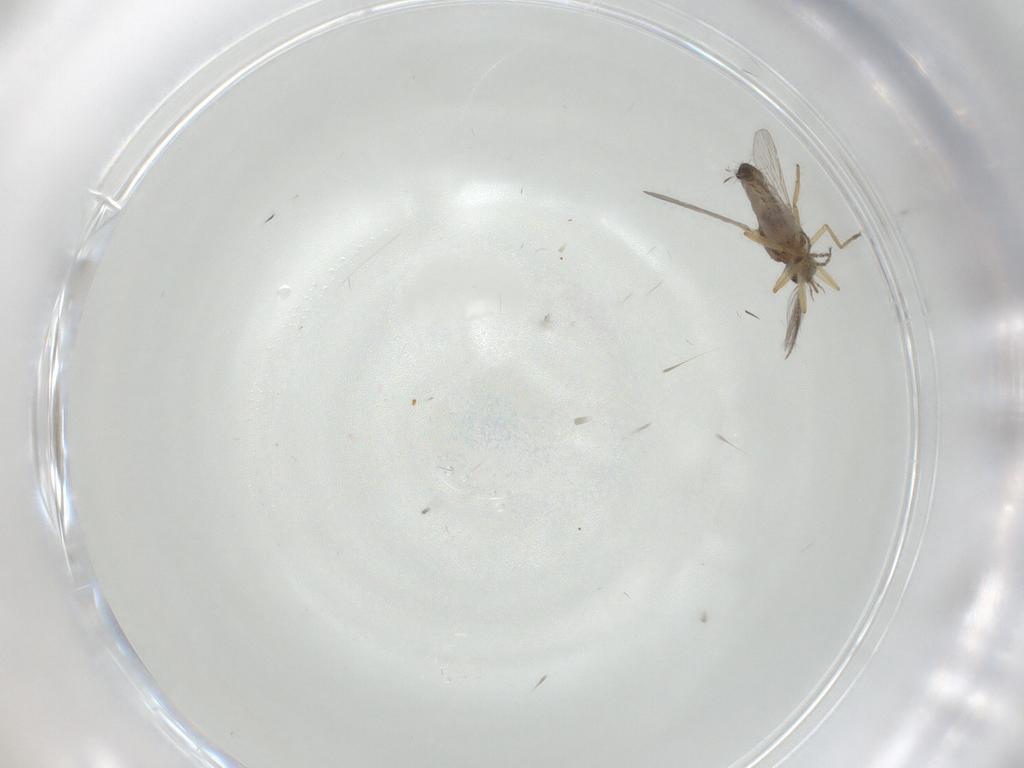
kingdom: Animalia
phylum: Arthropoda
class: Insecta
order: Diptera
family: Ceratopogonidae
